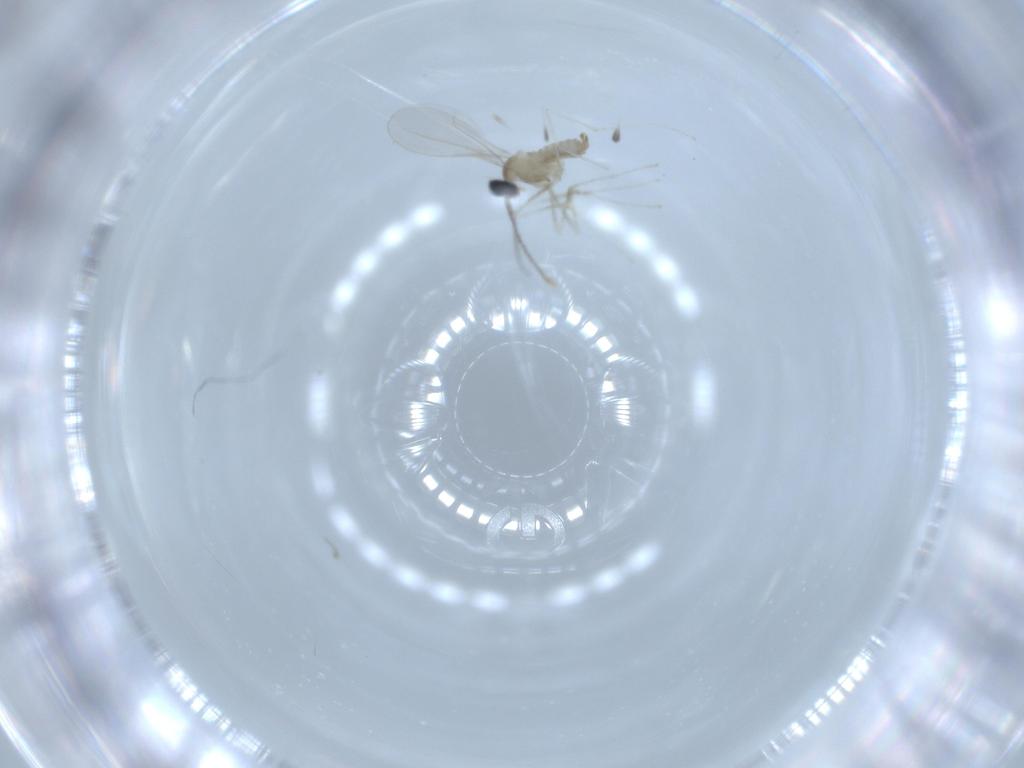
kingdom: Animalia
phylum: Arthropoda
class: Insecta
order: Diptera
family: Cecidomyiidae
